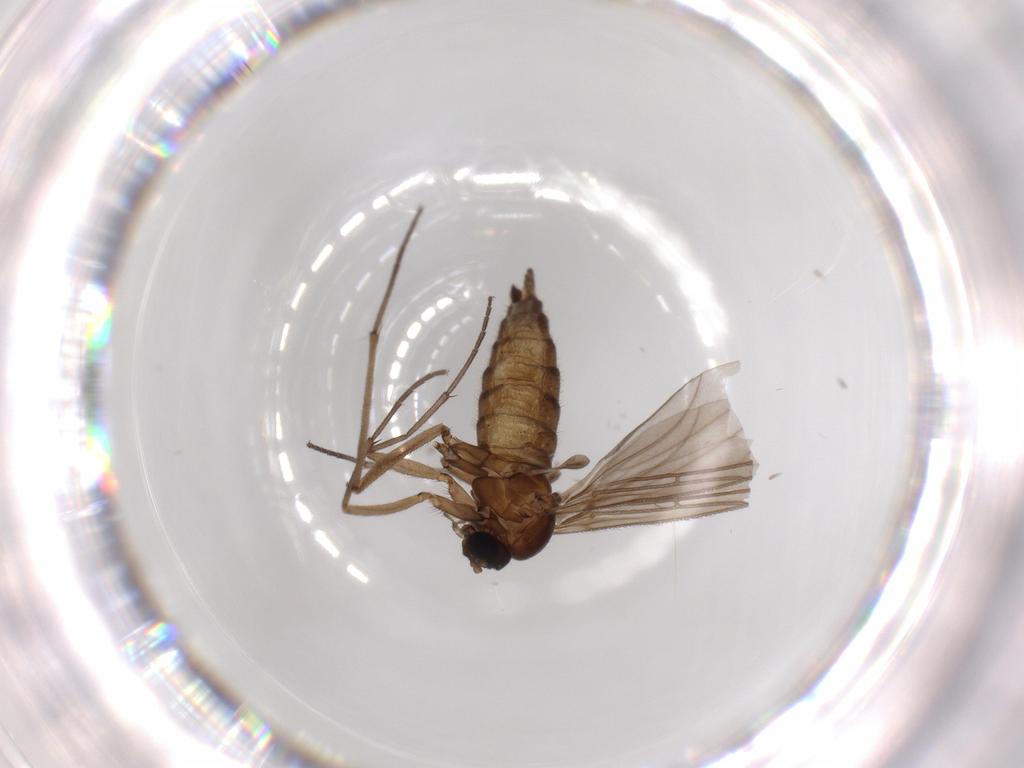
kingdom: Animalia
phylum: Arthropoda
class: Insecta
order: Diptera
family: Sciaridae
